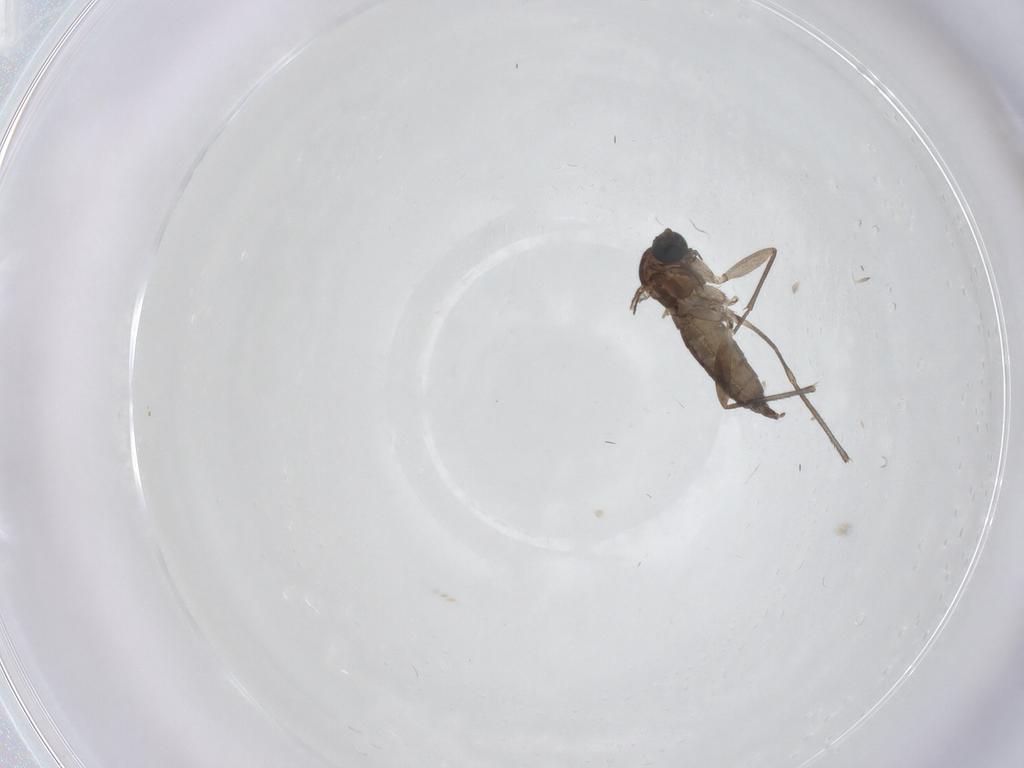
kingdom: Animalia
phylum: Arthropoda
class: Insecta
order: Diptera
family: Sciaridae
